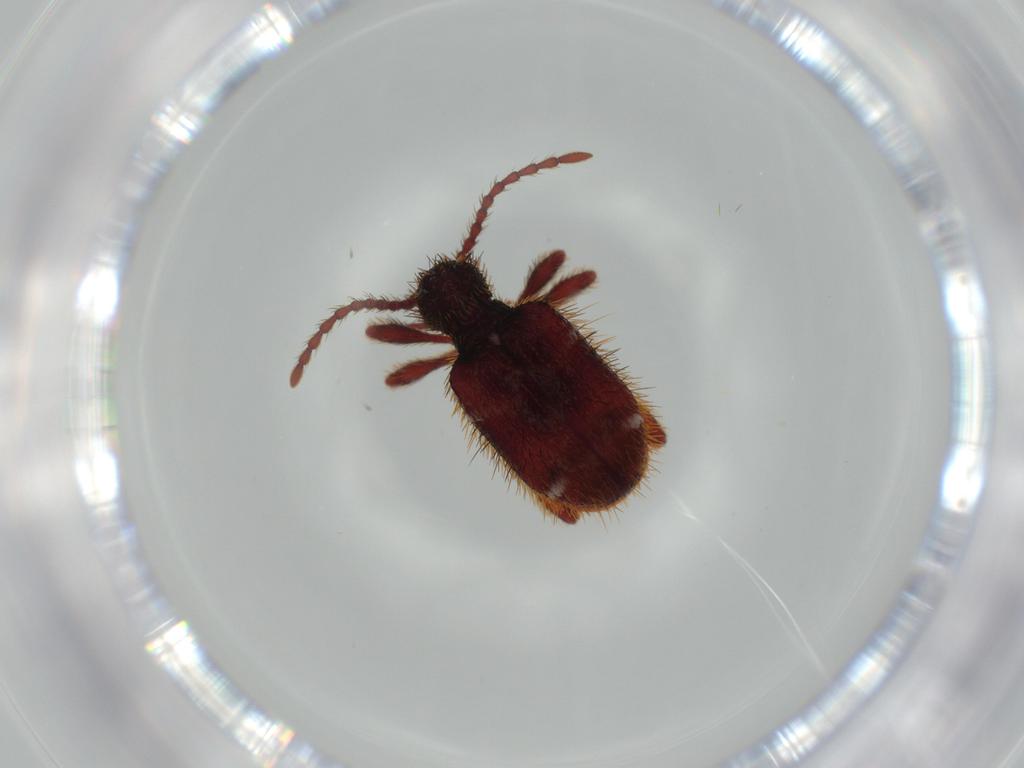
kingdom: Animalia
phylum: Arthropoda
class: Insecta
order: Coleoptera
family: Ptinidae
